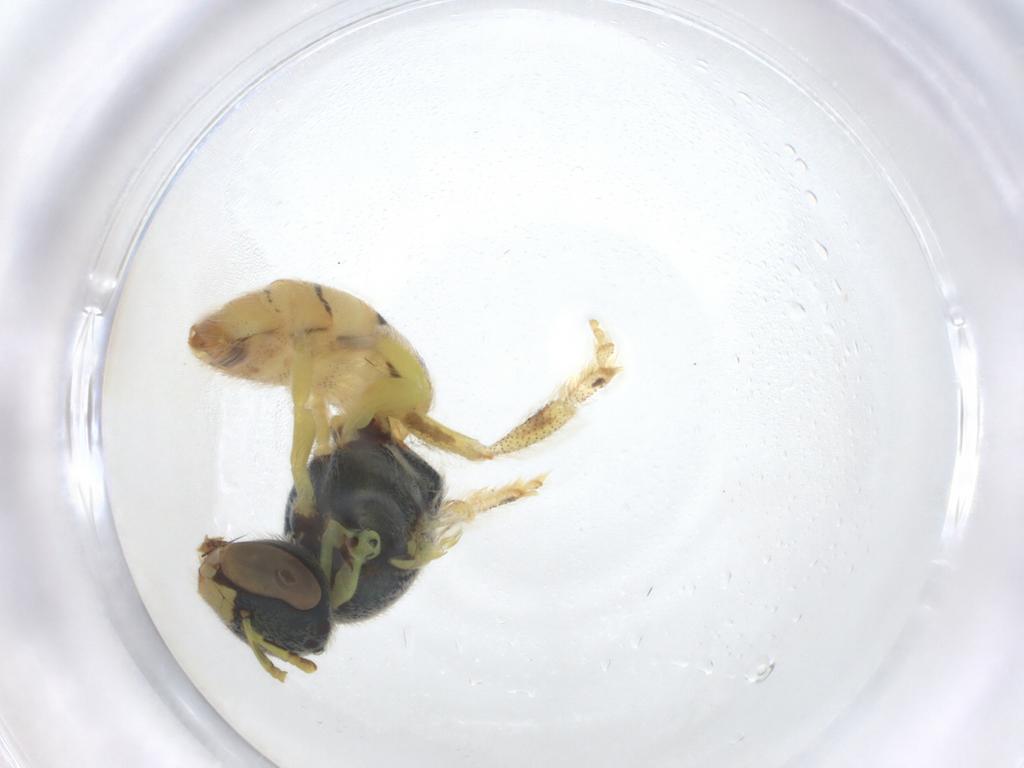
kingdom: Animalia
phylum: Arthropoda
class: Insecta
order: Hymenoptera
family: Halictidae
